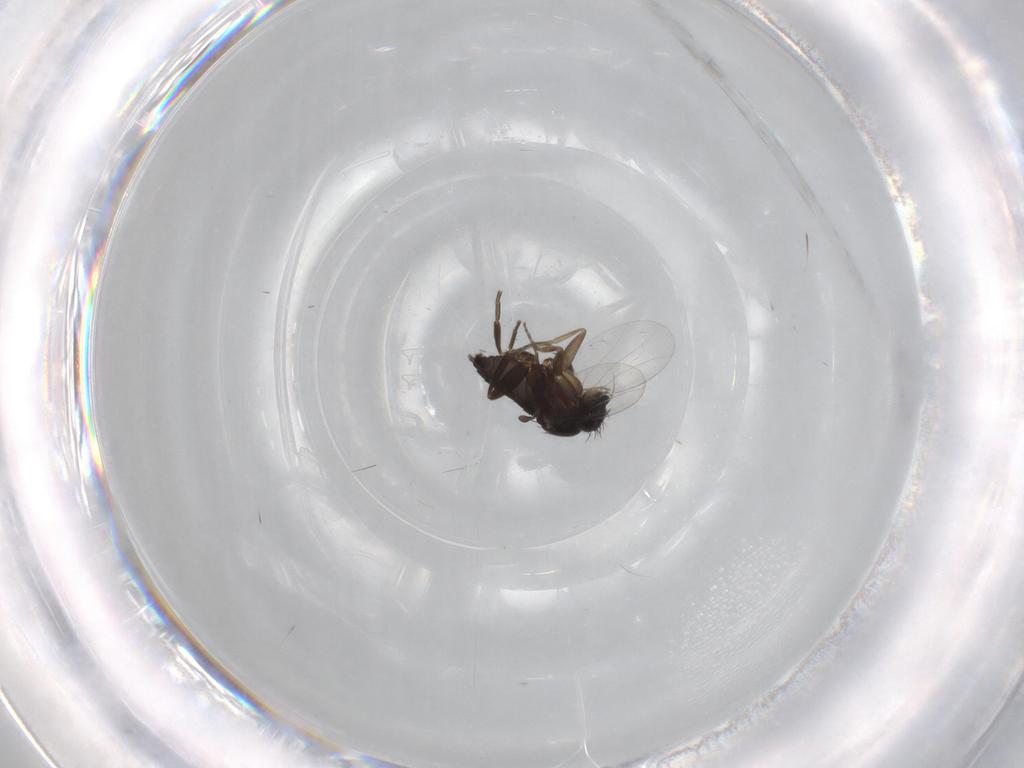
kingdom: Animalia
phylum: Arthropoda
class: Insecta
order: Diptera
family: Phoridae
